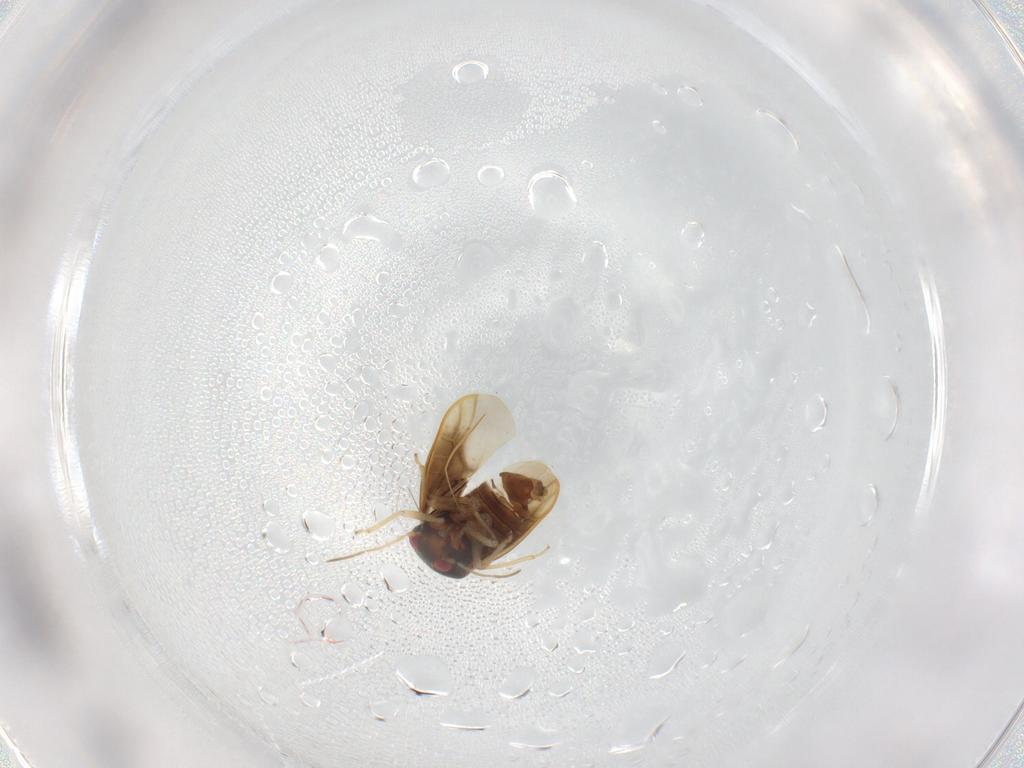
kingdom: Animalia
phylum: Arthropoda
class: Insecta
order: Hemiptera
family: Schizopteridae
